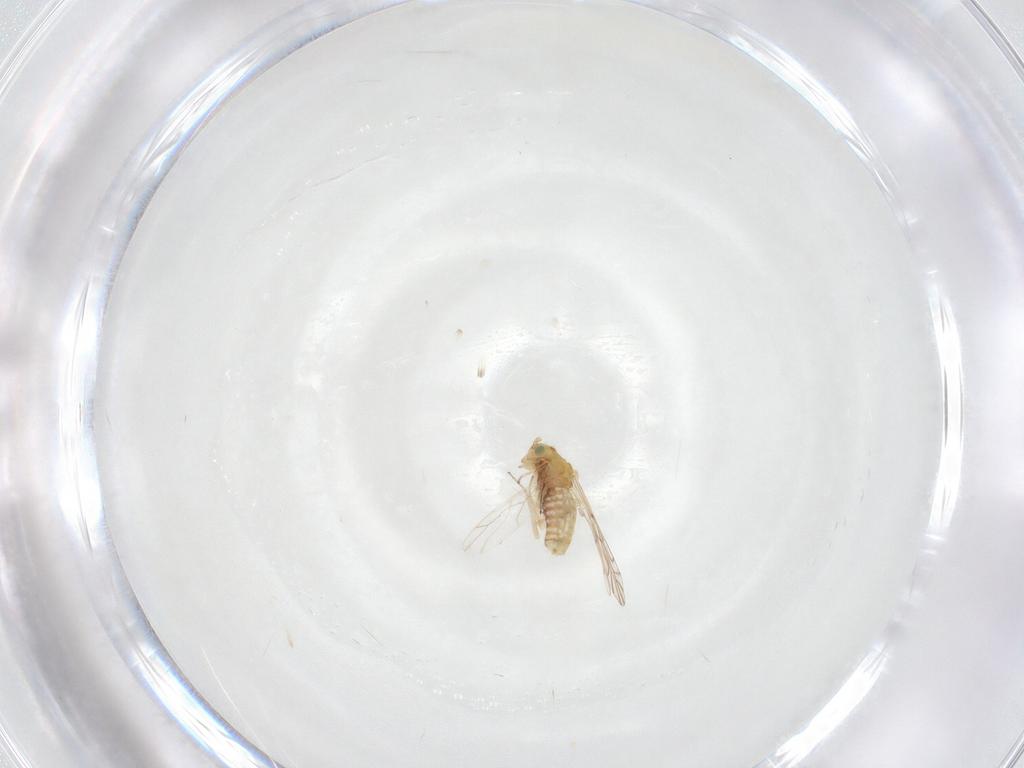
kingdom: Animalia
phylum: Arthropoda
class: Insecta
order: Psocodea
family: Lachesillidae
